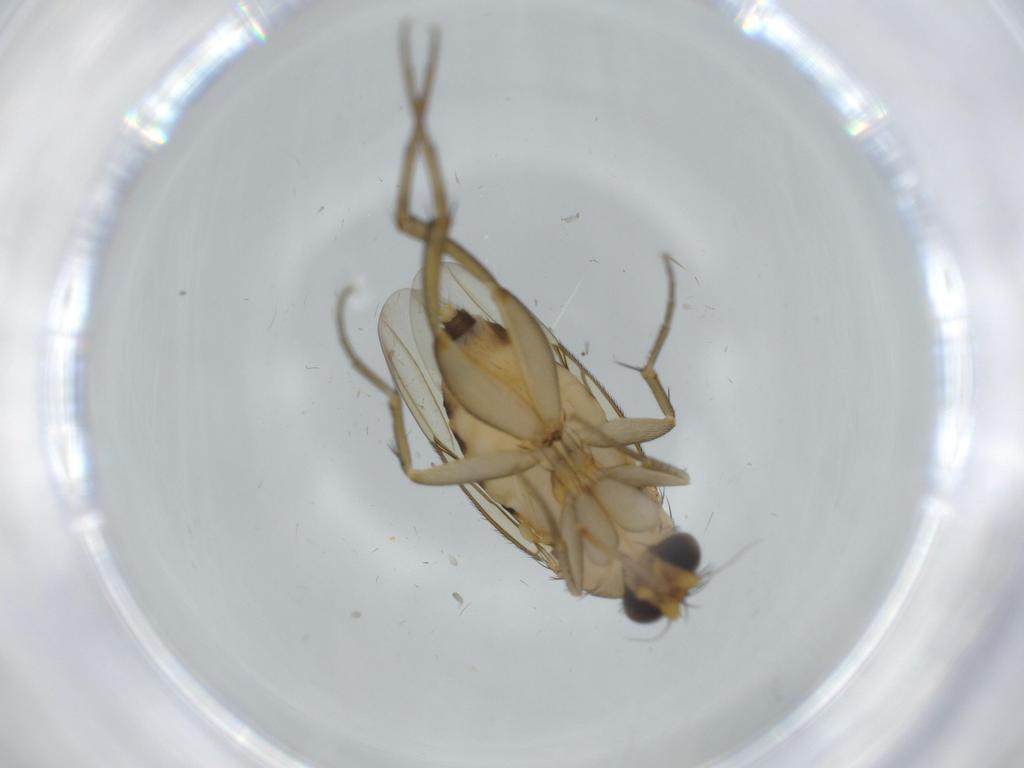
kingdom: Animalia
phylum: Arthropoda
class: Insecta
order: Diptera
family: Phoridae
